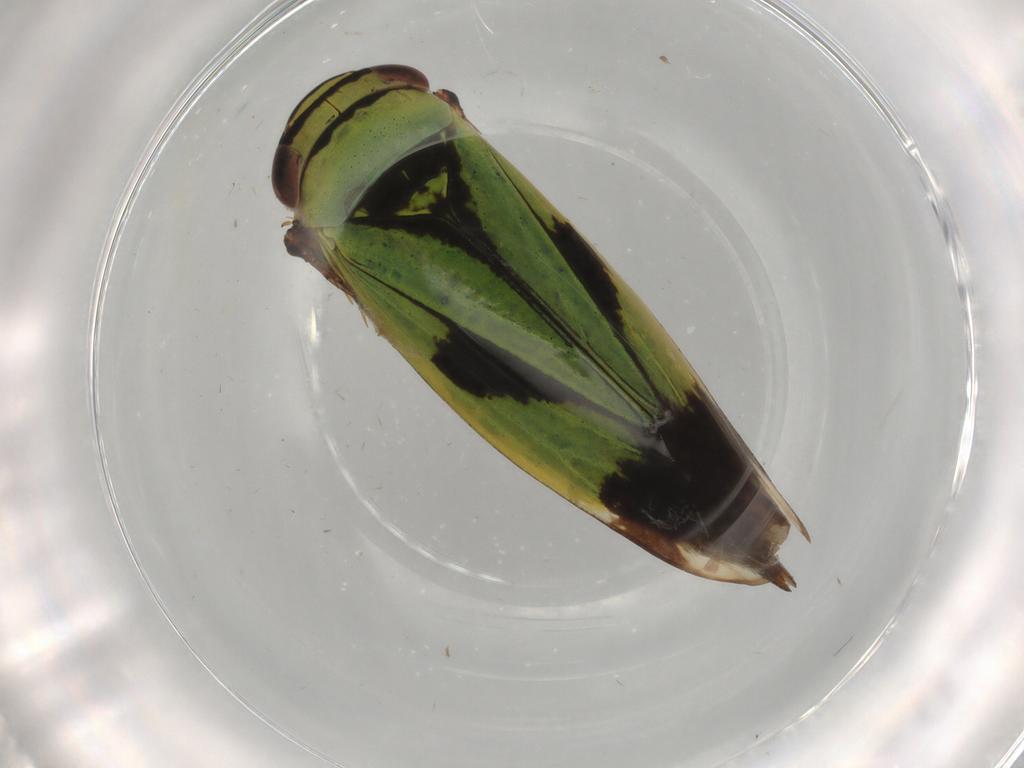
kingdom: Animalia
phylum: Arthropoda
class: Insecta
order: Hemiptera
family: Cicadellidae
